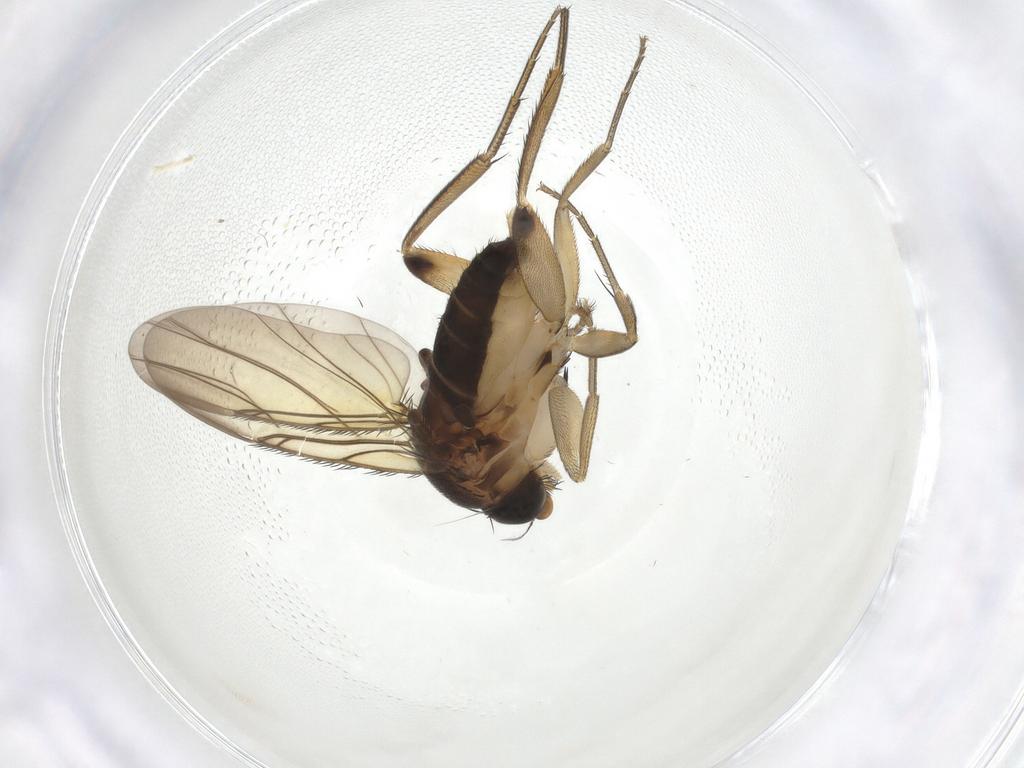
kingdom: Animalia
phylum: Arthropoda
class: Insecta
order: Diptera
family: Phoridae
